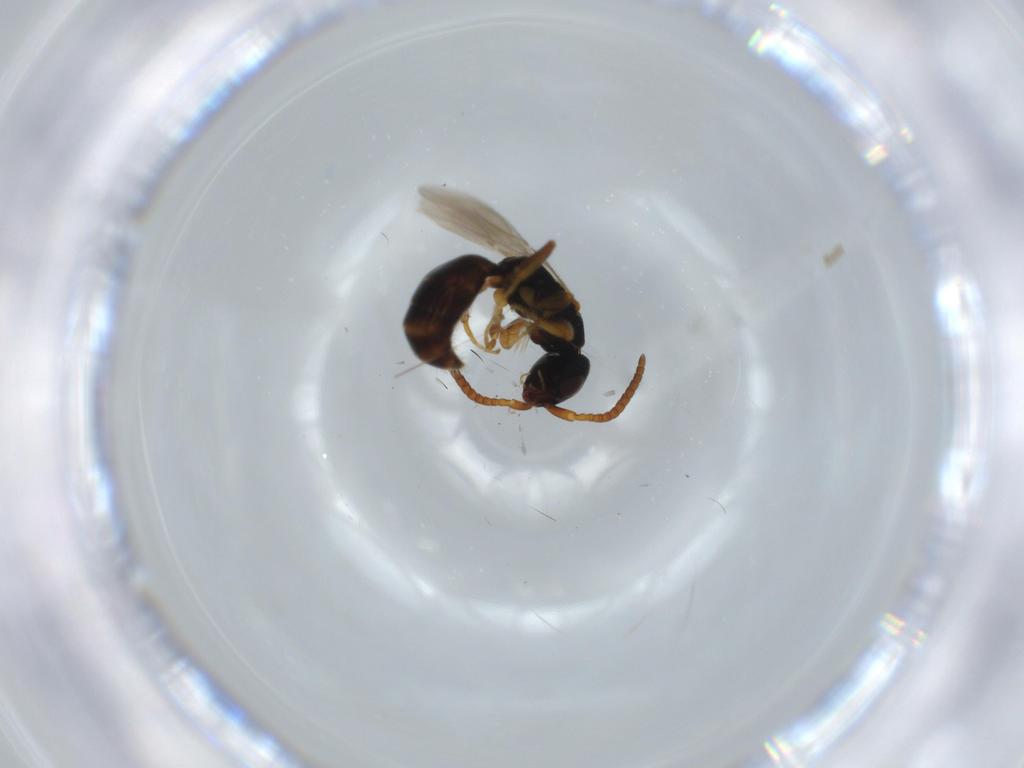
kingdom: Animalia
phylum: Arthropoda
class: Insecta
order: Hymenoptera
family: Bethylidae
